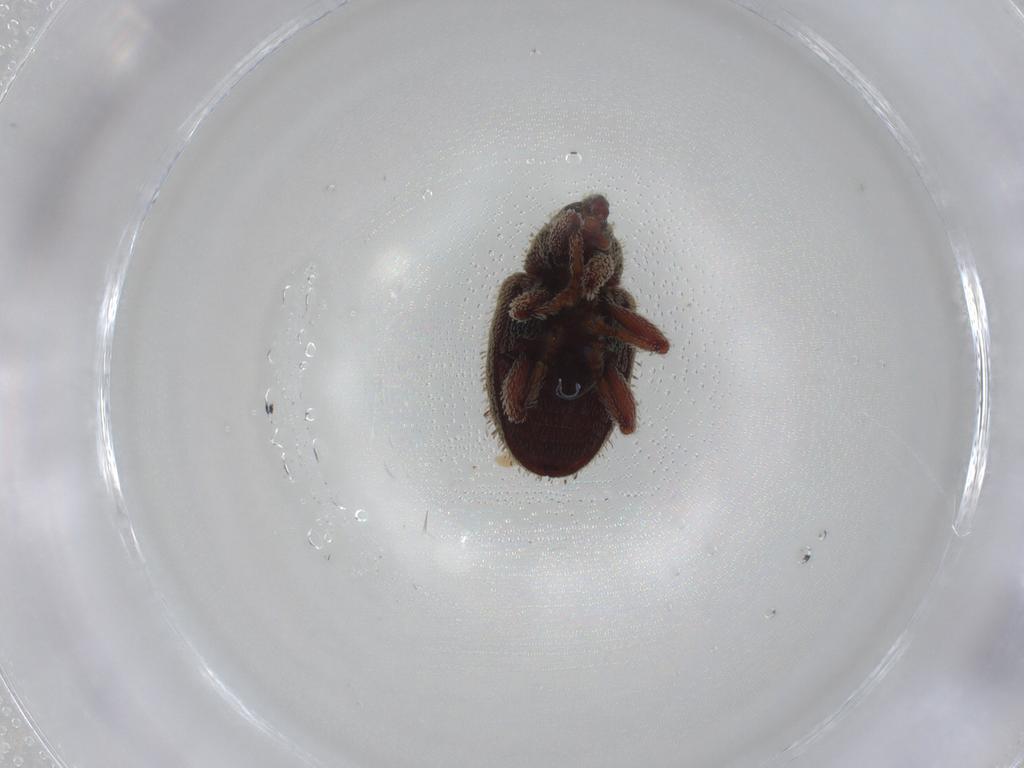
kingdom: Animalia
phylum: Arthropoda
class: Insecta
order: Coleoptera
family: Curculionidae
